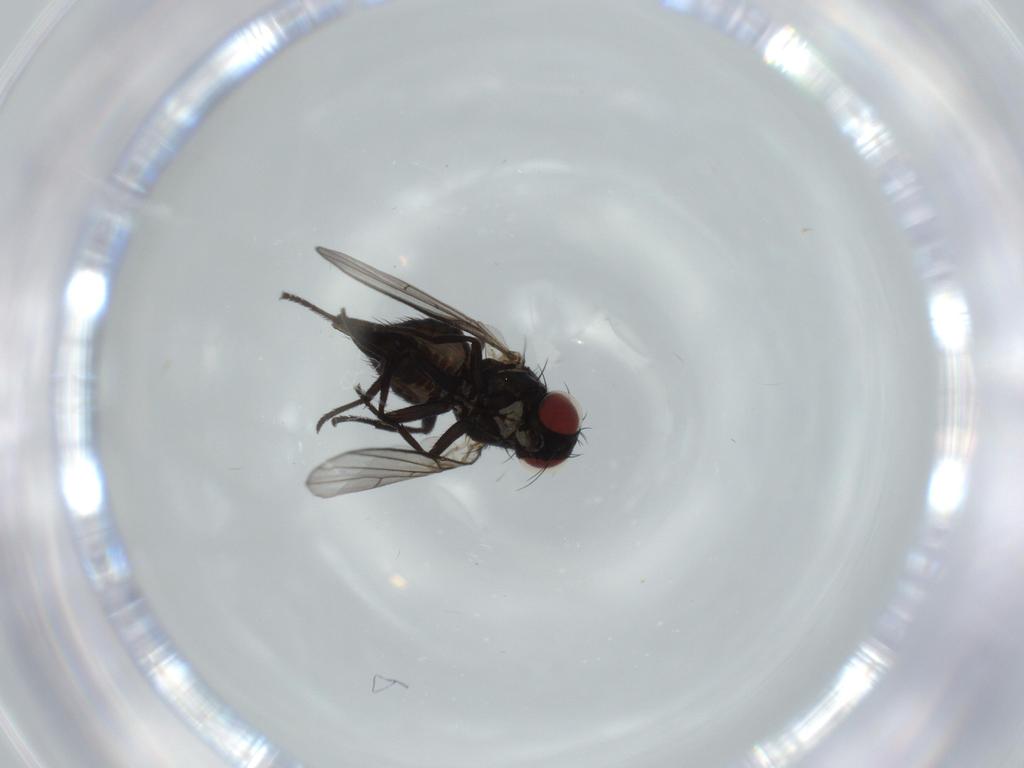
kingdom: Animalia
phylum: Arthropoda
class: Insecta
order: Diptera
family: Agromyzidae
